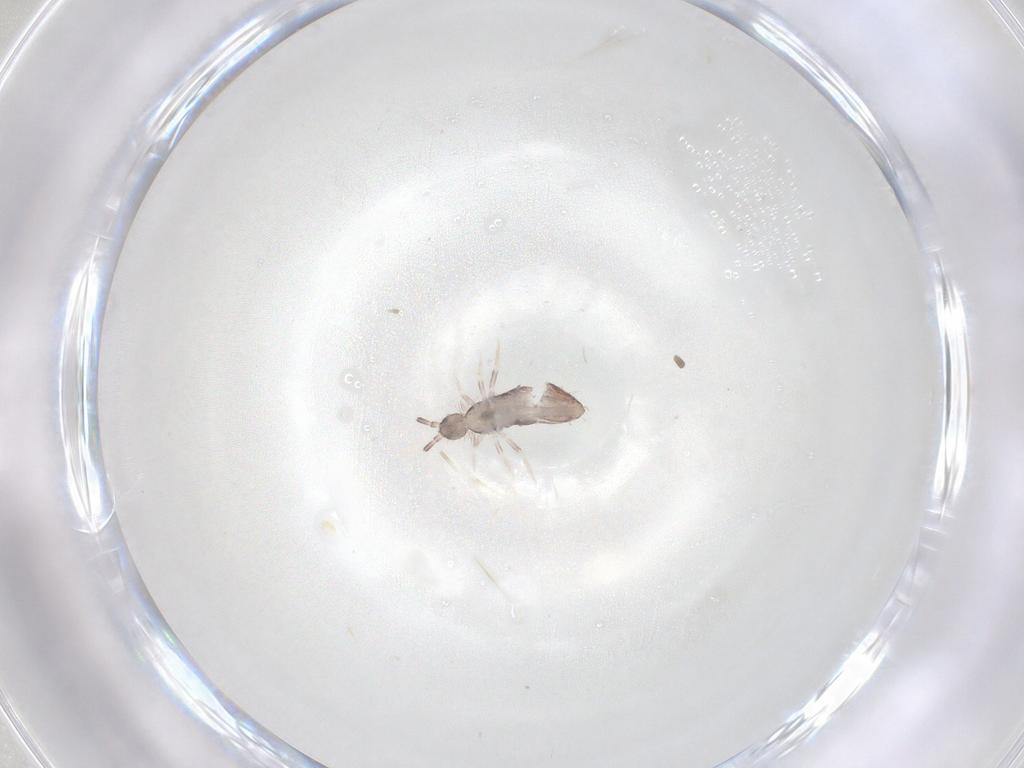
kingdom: Animalia
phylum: Arthropoda
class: Collembola
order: Poduromorpha
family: Hypogastruridae
